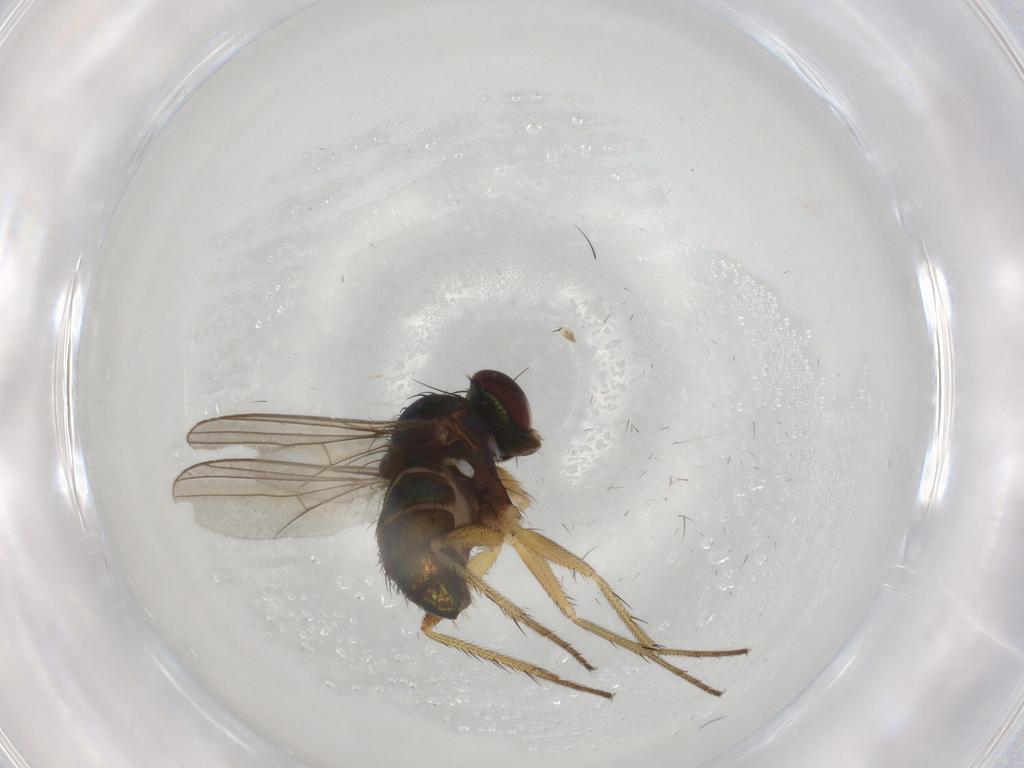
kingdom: Animalia
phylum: Arthropoda
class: Insecta
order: Diptera
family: Dolichopodidae
